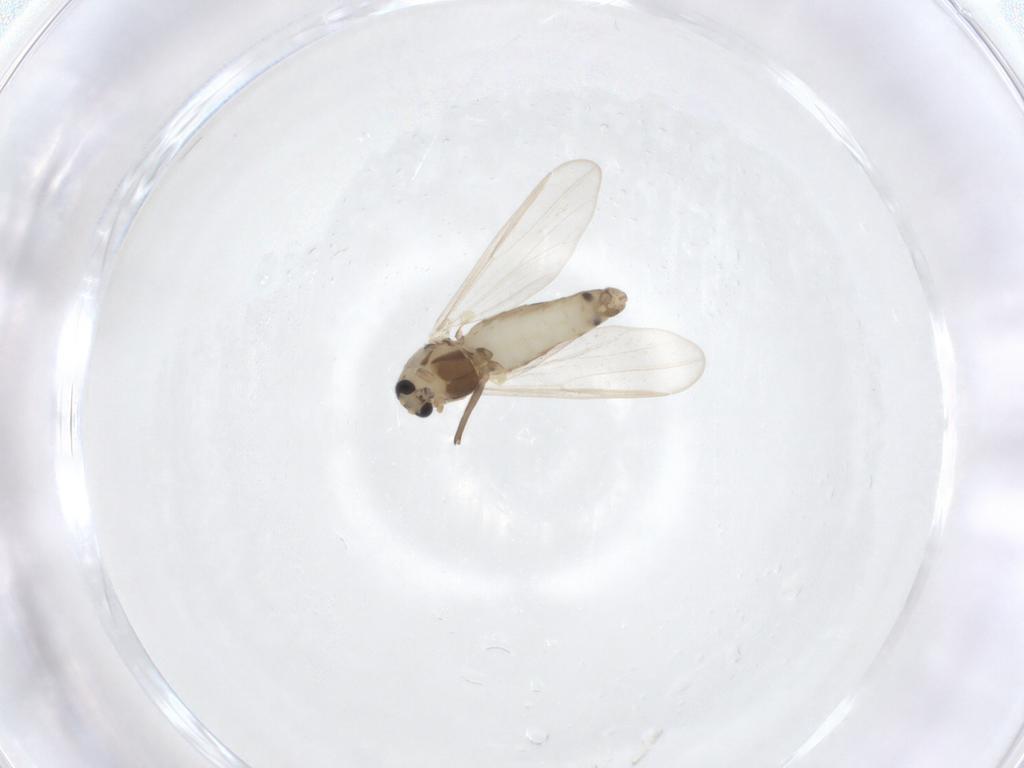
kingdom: Animalia
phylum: Arthropoda
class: Insecta
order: Diptera
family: Chironomidae
